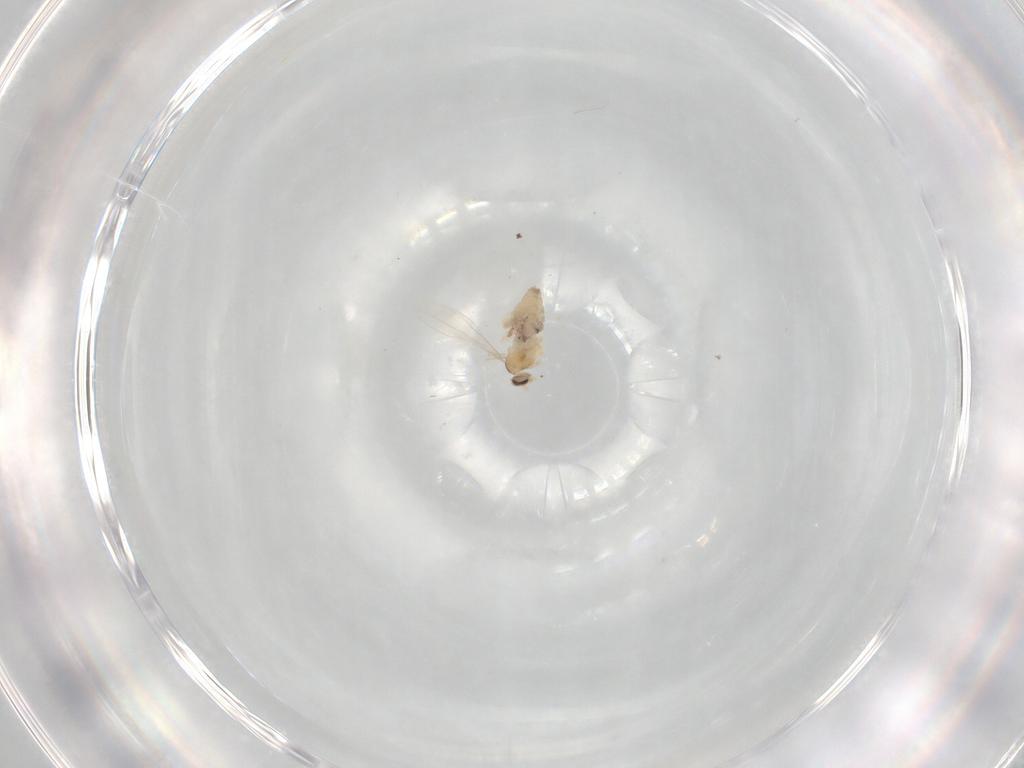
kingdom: Animalia
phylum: Arthropoda
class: Insecta
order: Diptera
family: Cecidomyiidae
